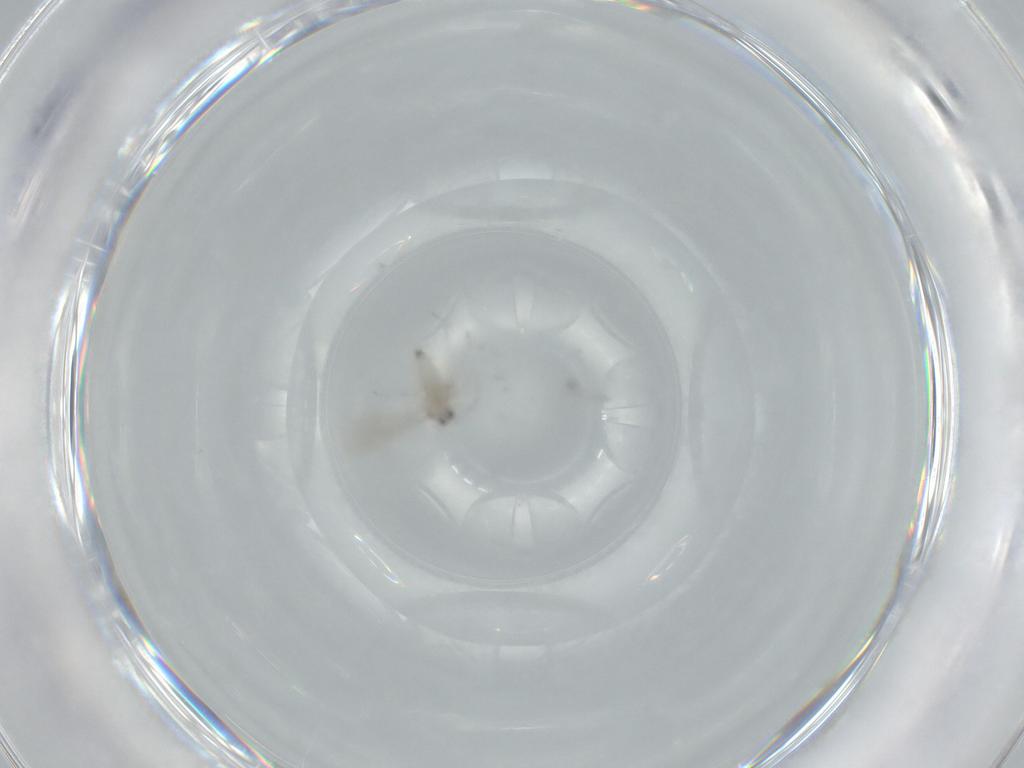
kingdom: Animalia
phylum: Arthropoda
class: Insecta
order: Diptera
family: Cecidomyiidae
